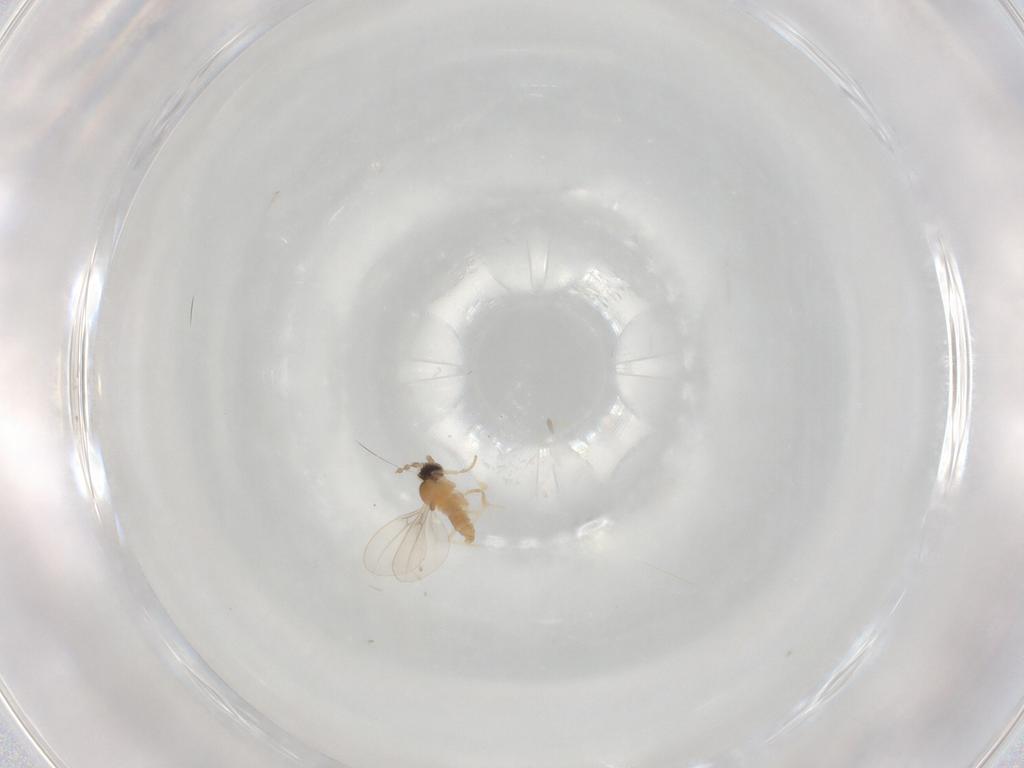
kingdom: Animalia
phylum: Arthropoda
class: Insecta
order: Diptera
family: Cecidomyiidae
